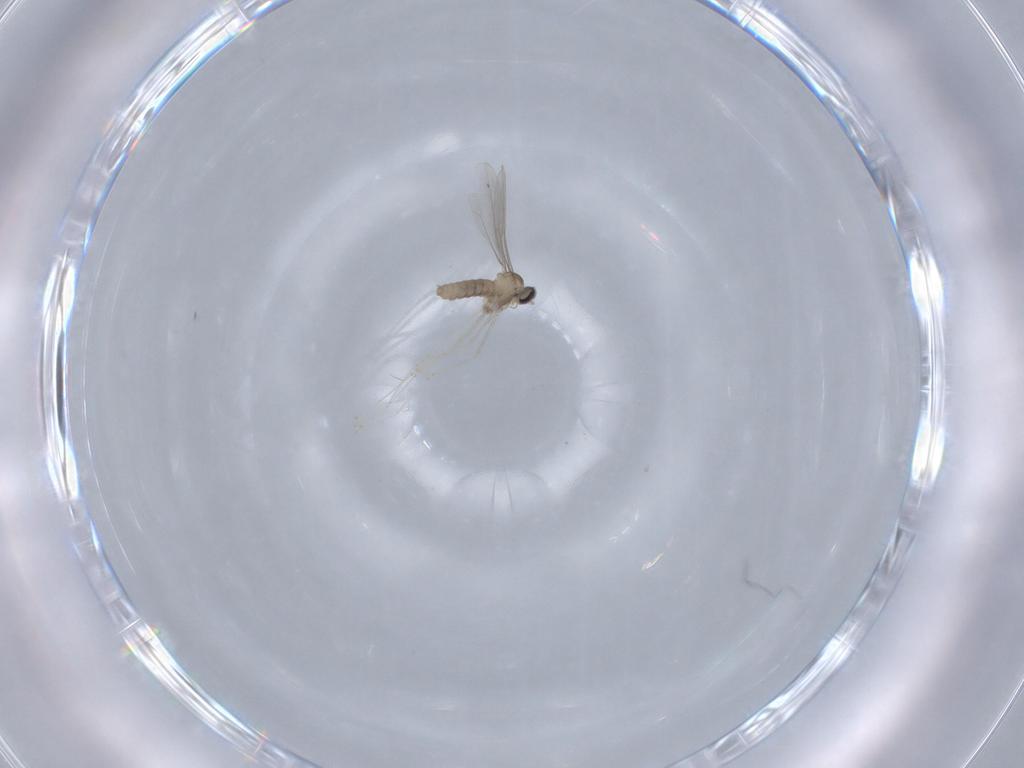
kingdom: Animalia
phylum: Arthropoda
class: Insecta
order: Diptera
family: Cecidomyiidae
